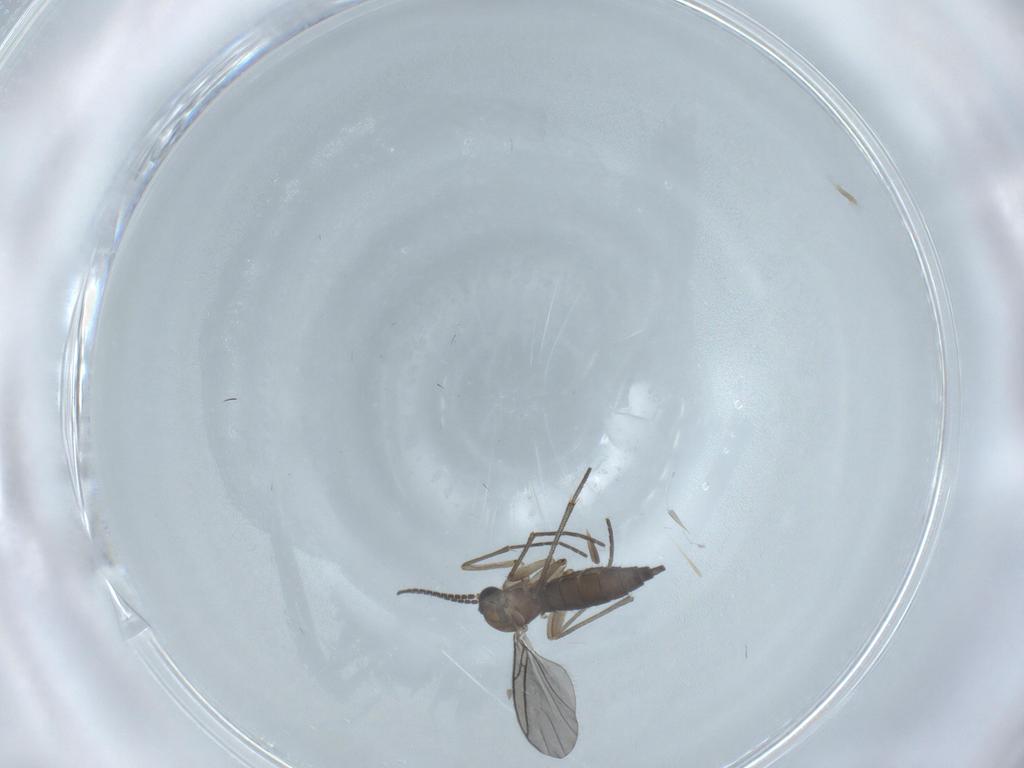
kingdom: Animalia
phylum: Arthropoda
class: Insecta
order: Diptera
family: Sciaridae
